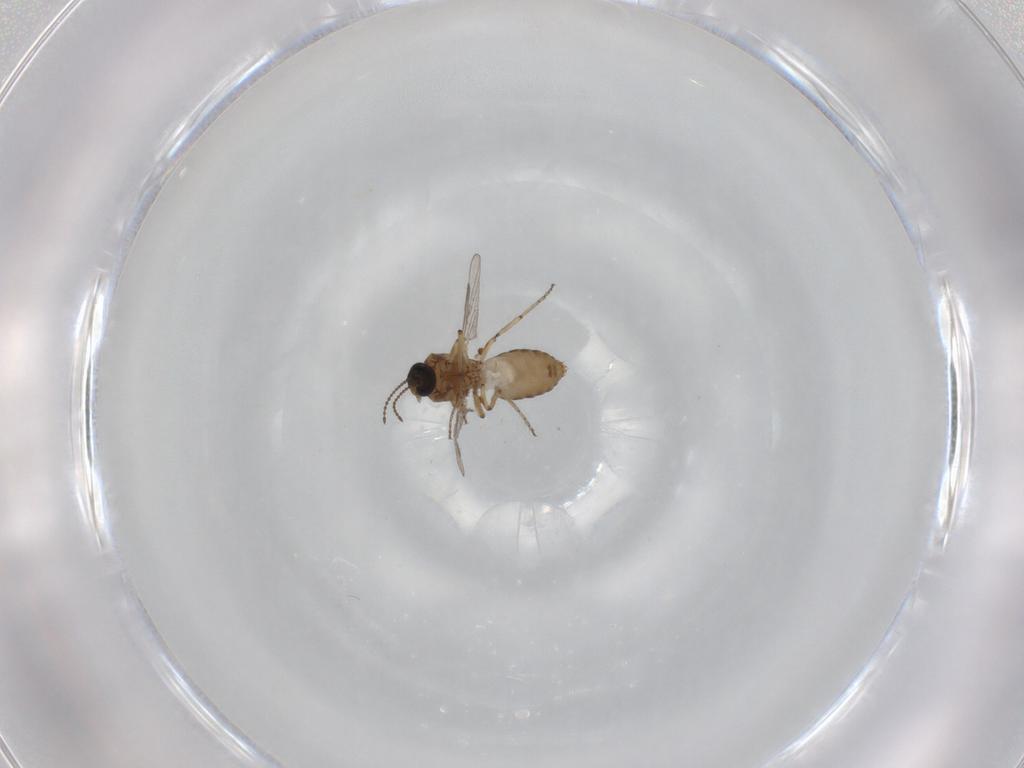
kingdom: Animalia
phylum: Arthropoda
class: Insecta
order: Diptera
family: Ceratopogonidae
